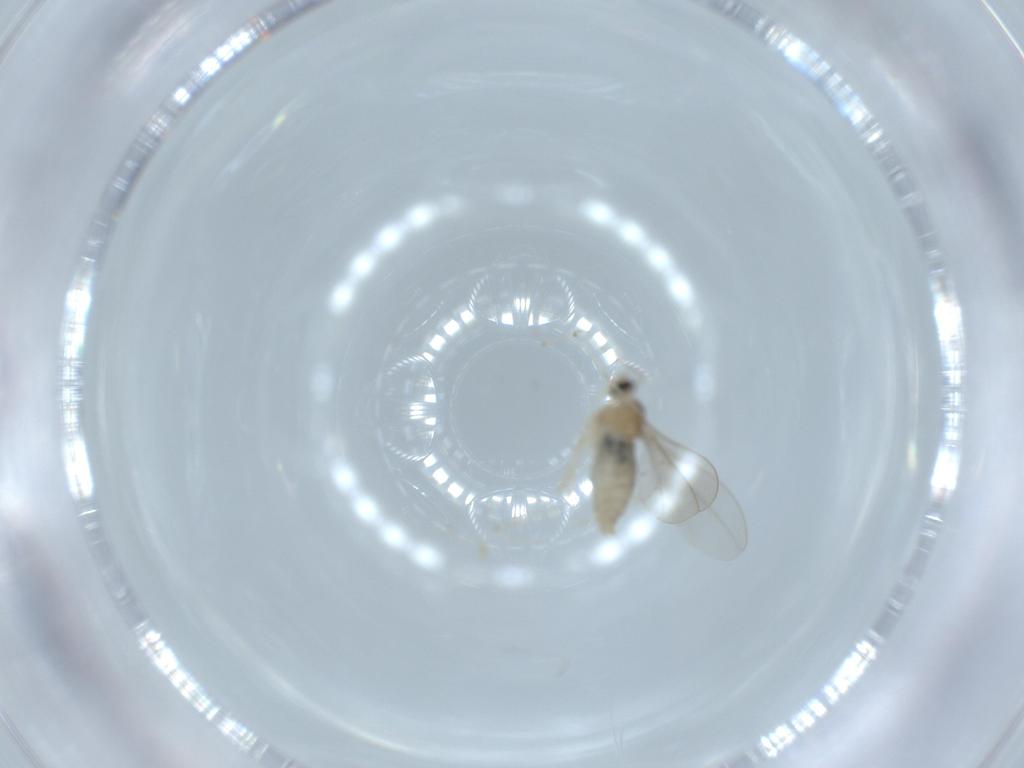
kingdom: Animalia
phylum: Arthropoda
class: Insecta
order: Diptera
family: Cecidomyiidae
